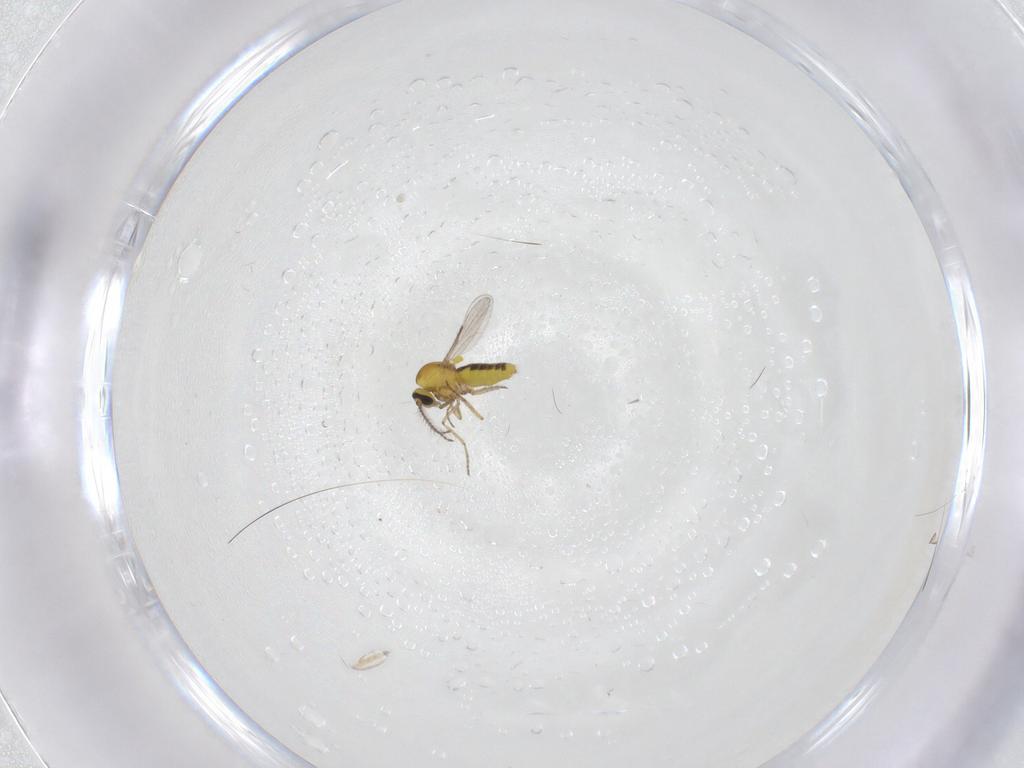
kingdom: Animalia
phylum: Arthropoda
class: Insecta
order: Diptera
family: Ceratopogonidae
